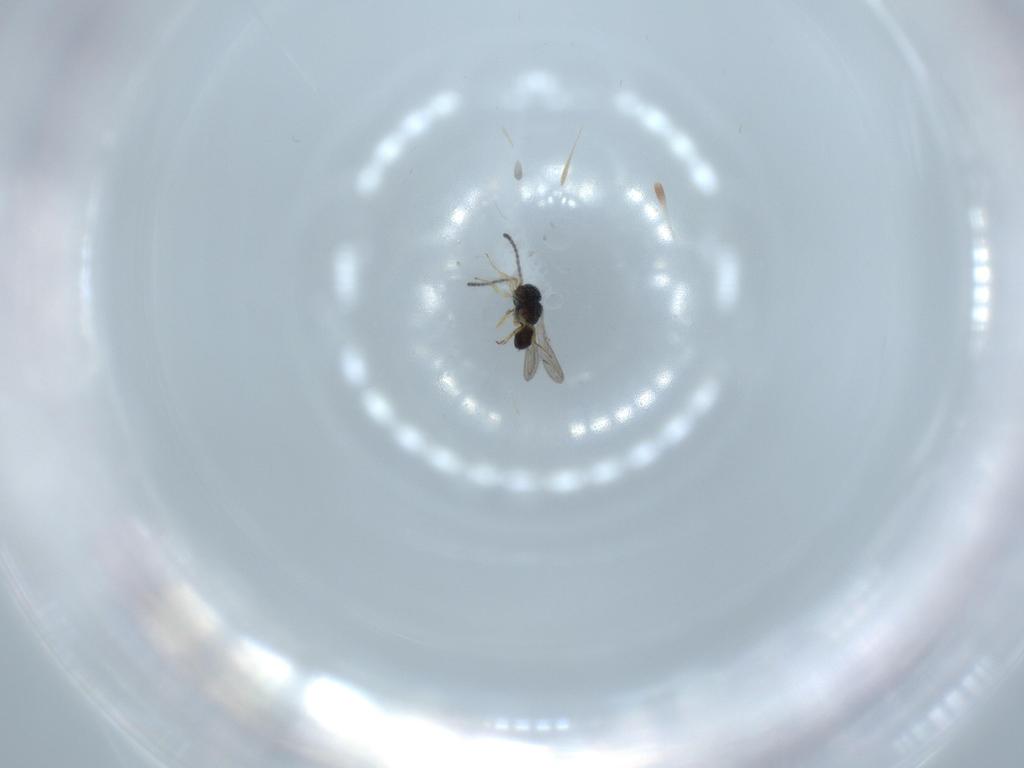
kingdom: Animalia
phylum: Arthropoda
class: Insecta
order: Hymenoptera
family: Scelionidae
